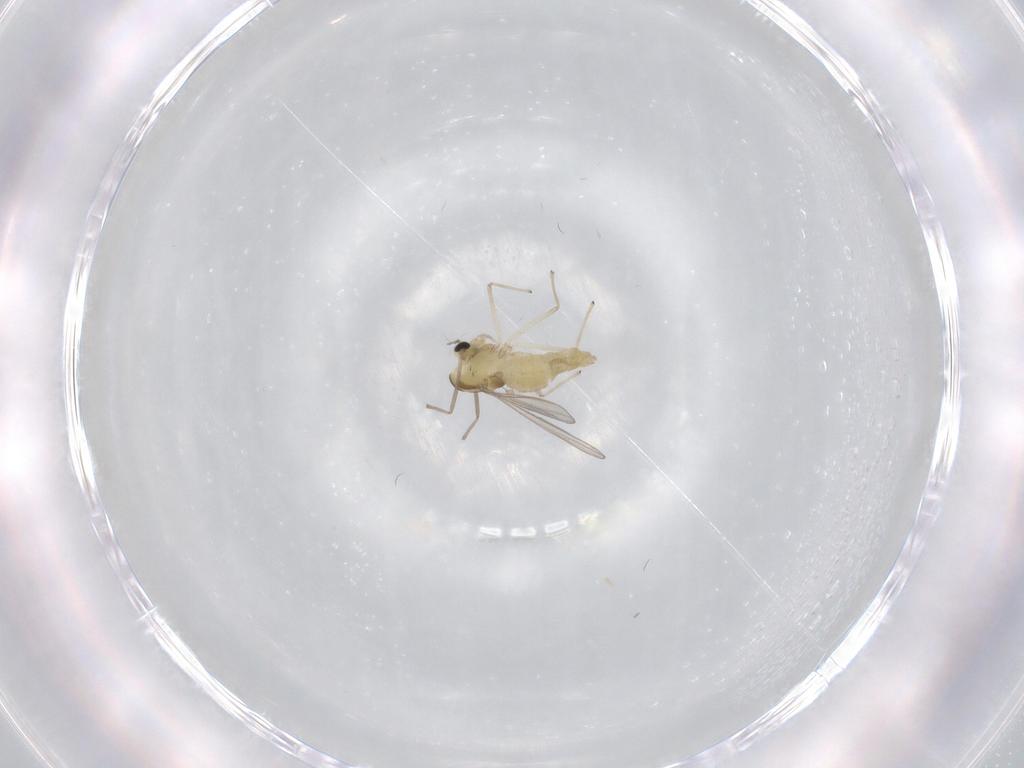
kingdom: Animalia
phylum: Arthropoda
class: Insecta
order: Diptera
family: Chironomidae
